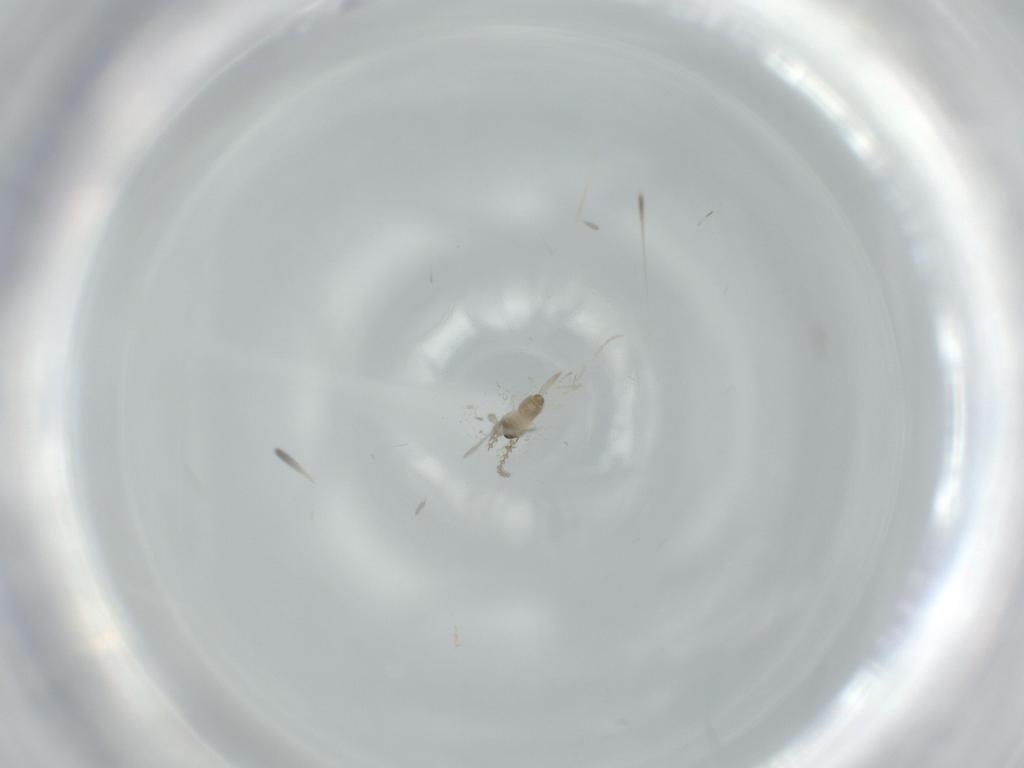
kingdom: Animalia
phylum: Arthropoda
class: Insecta
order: Diptera
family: Cecidomyiidae
